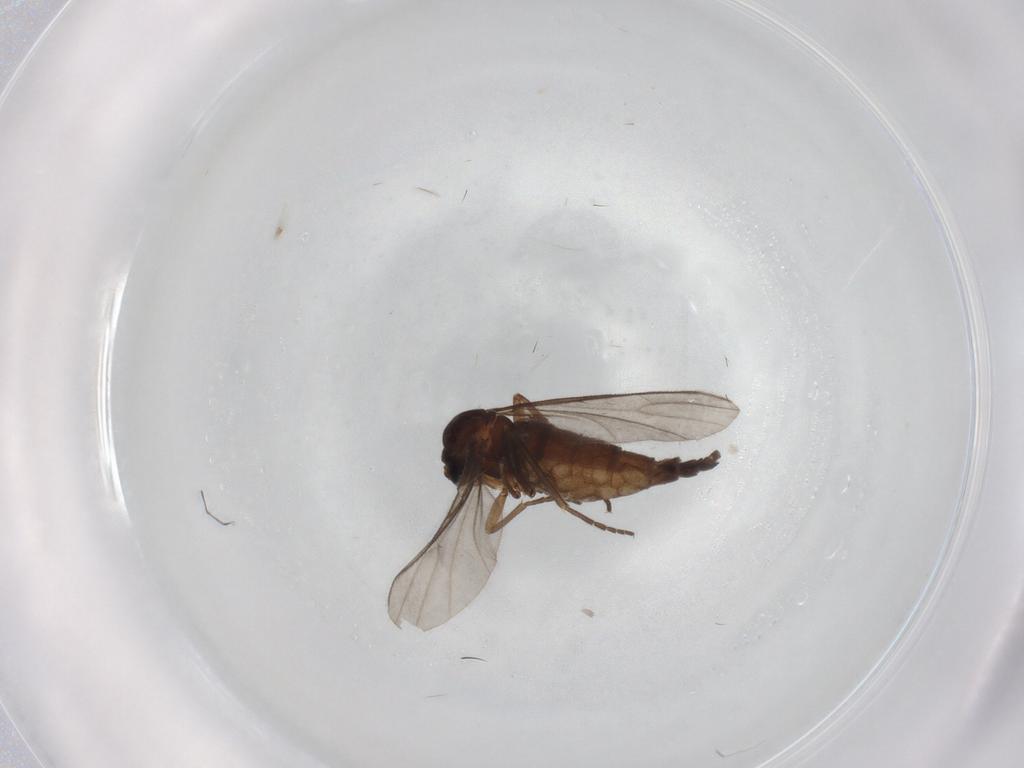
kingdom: Animalia
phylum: Arthropoda
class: Insecta
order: Diptera
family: Sciaridae
